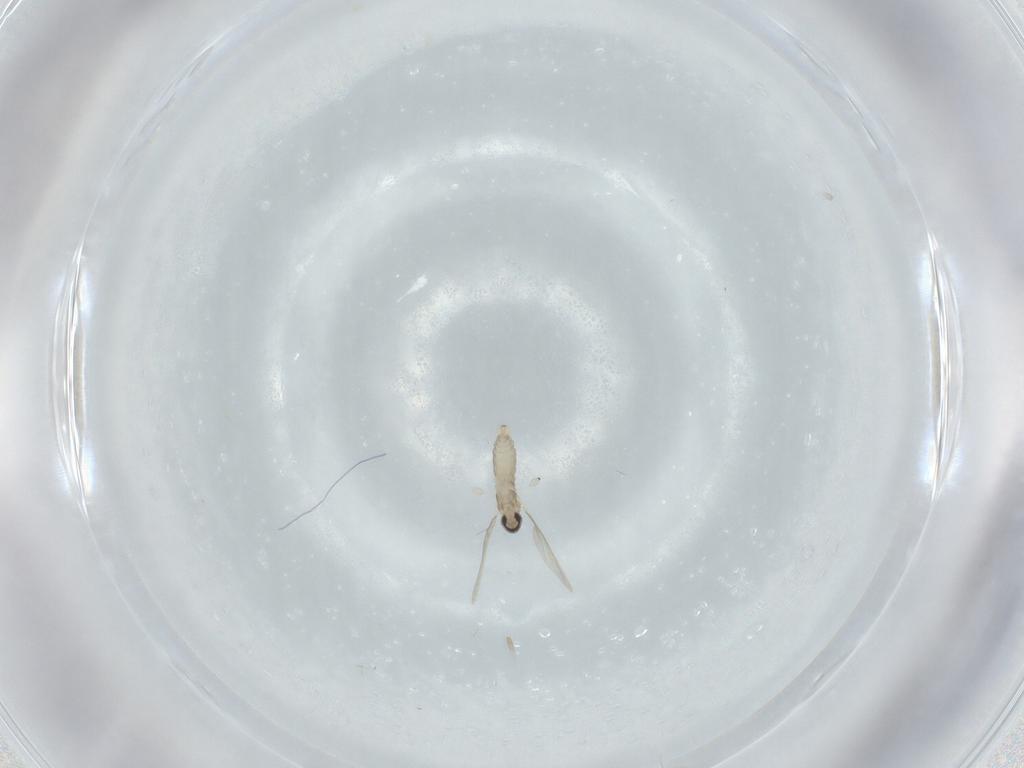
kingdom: Animalia
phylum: Arthropoda
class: Insecta
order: Diptera
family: Cecidomyiidae
